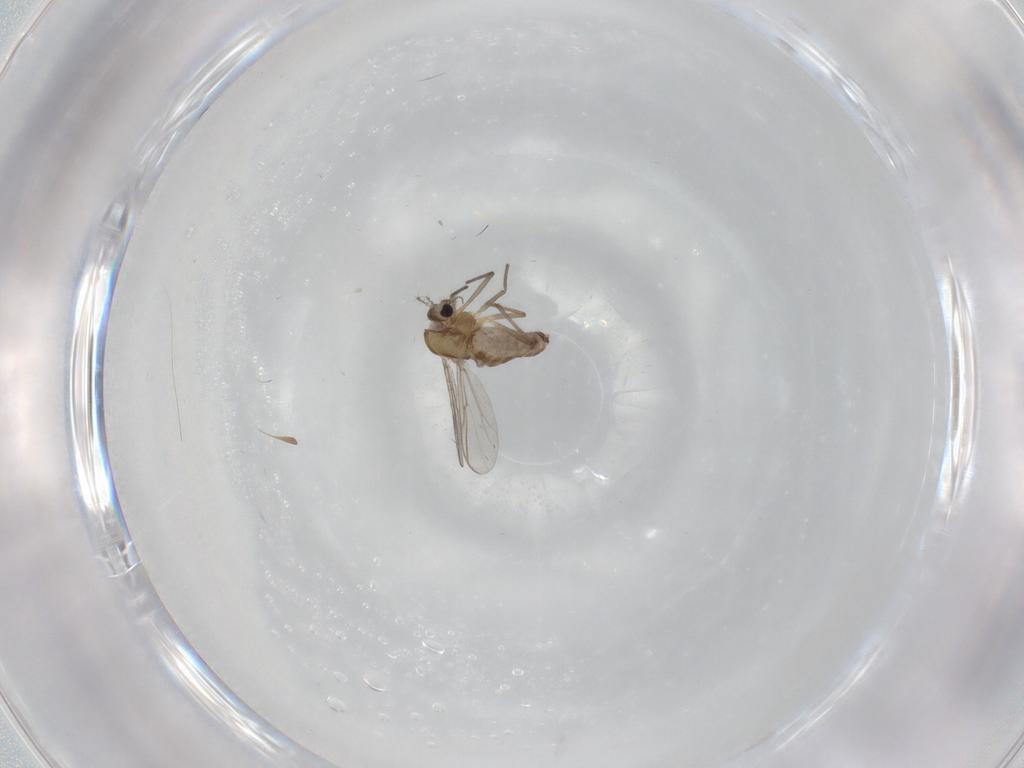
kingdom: Animalia
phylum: Arthropoda
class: Insecta
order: Diptera
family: Chironomidae
